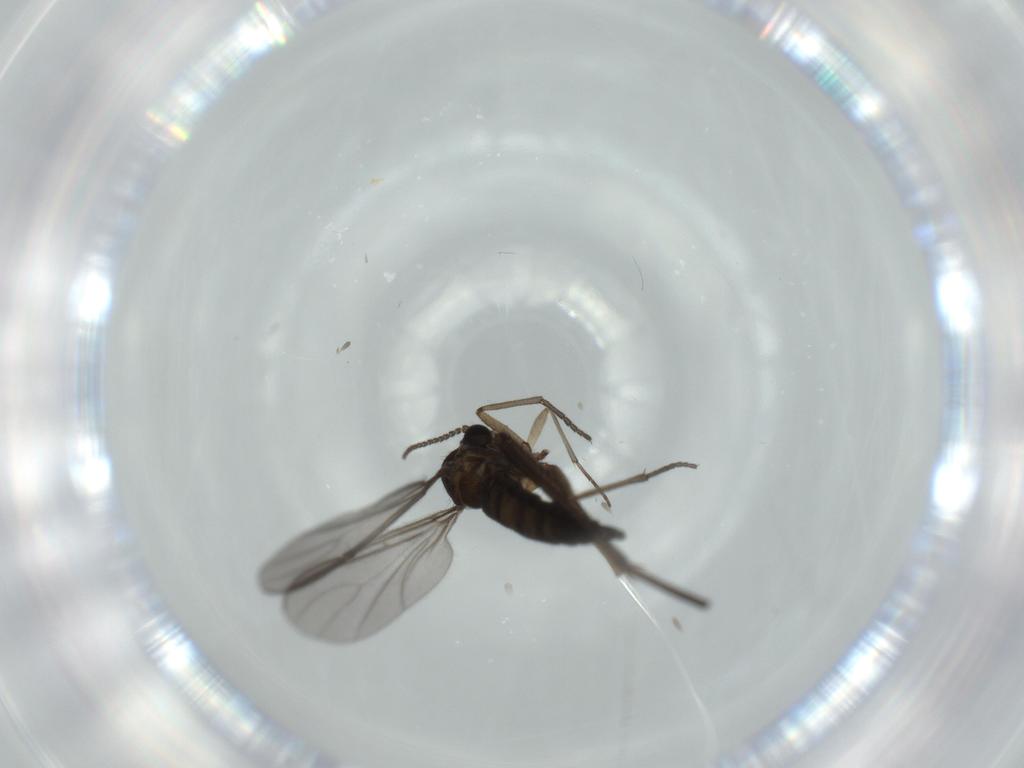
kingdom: Animalia
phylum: Arthropoda
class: Insecta
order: Diptera
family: Sciaridae
